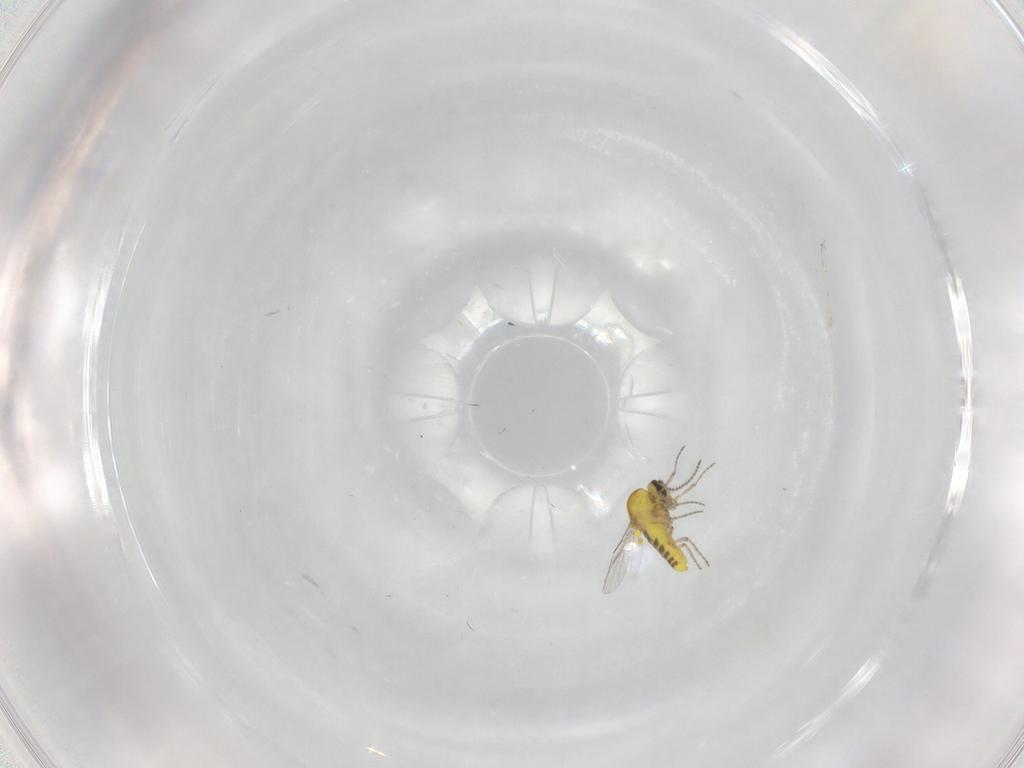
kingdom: Animalia
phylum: Arthropoda
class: Insecta
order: Diptera
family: Ceratopogonidae
